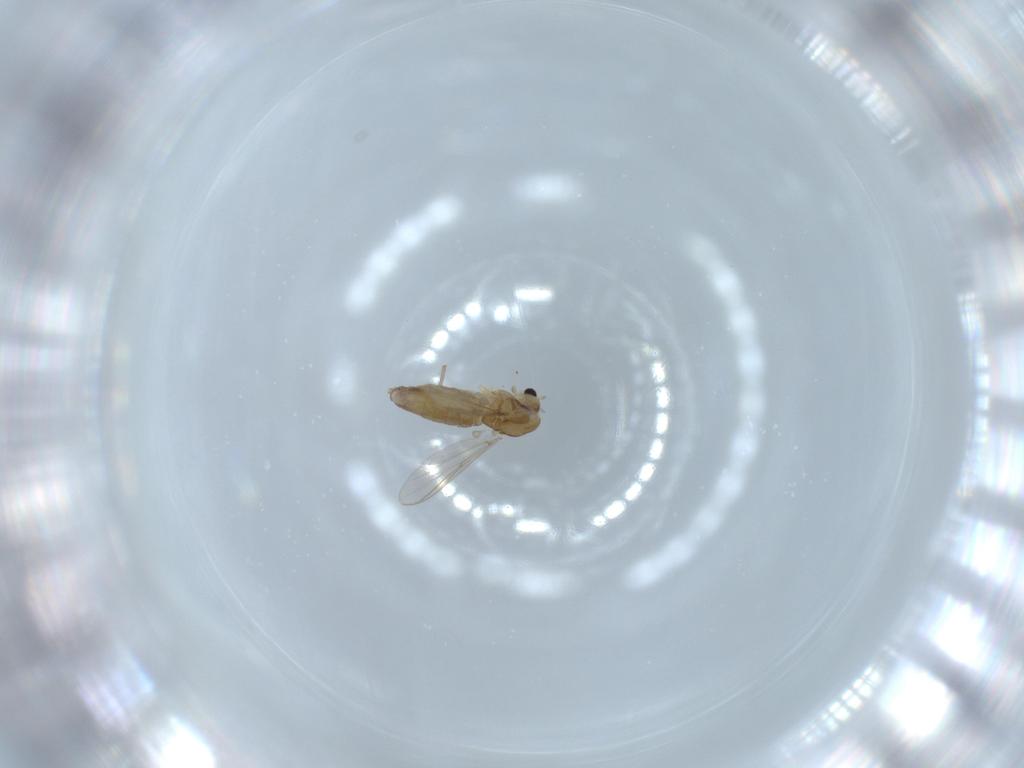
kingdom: Animalia
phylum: Arthropoda
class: Insecta
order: Diptera
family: Chironomidae
